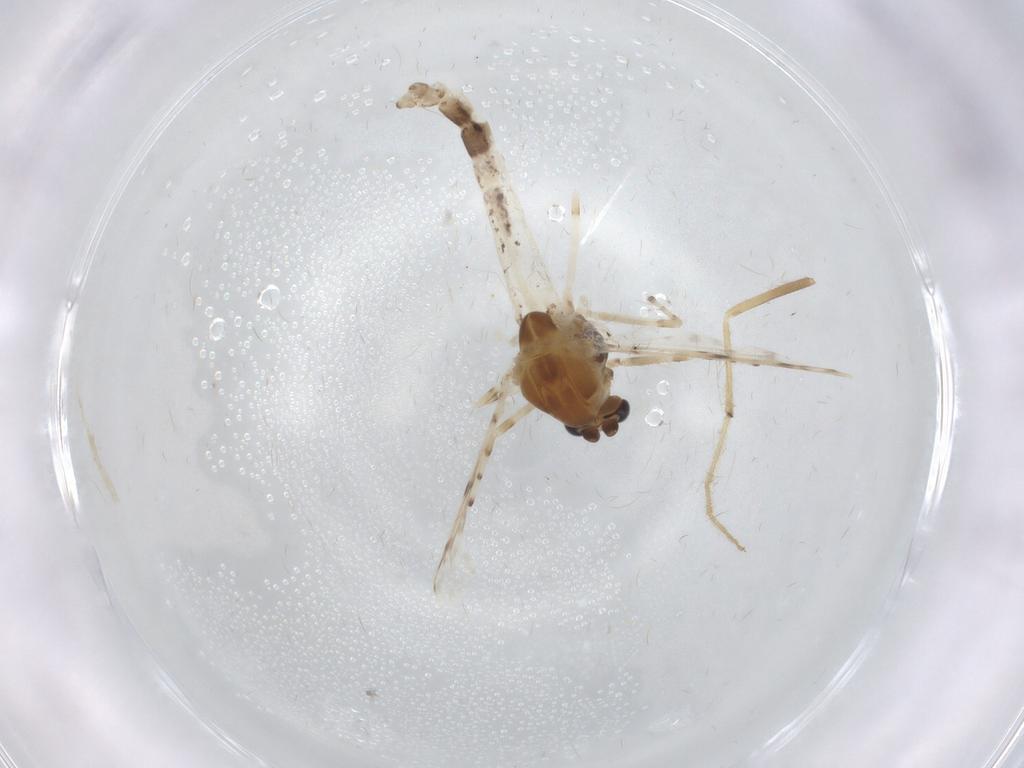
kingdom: Animalia
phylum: Arthropoda
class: Insecta
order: Diptera
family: Chironomidae
